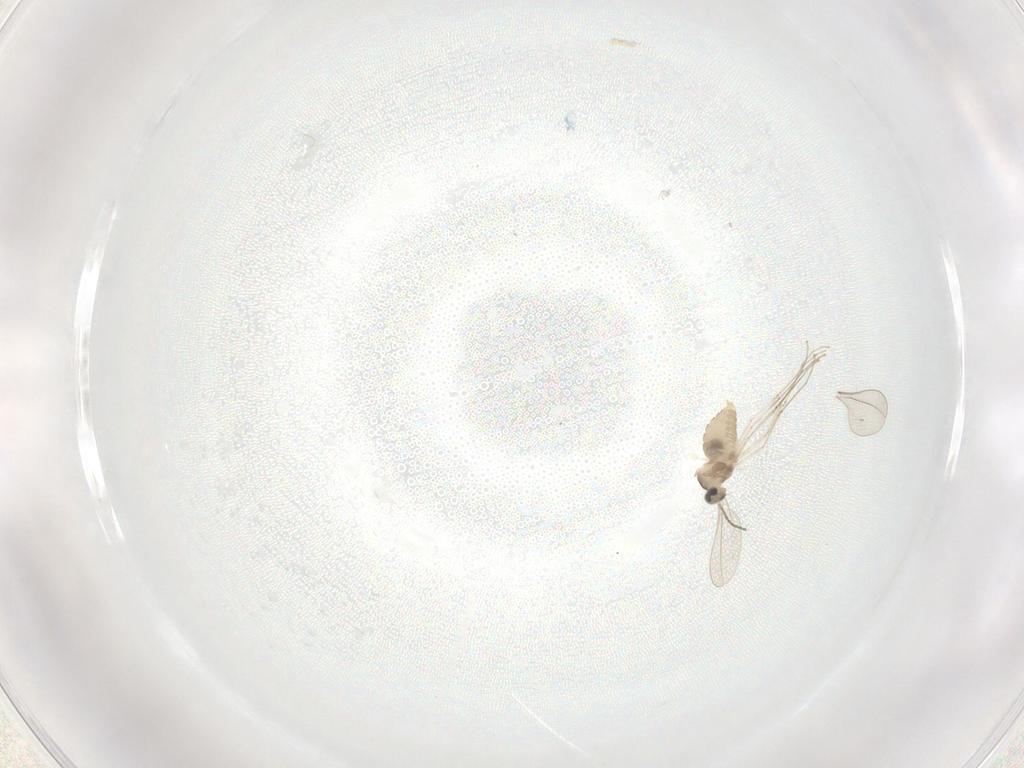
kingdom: Animalia
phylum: Arthropoda
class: Insecta
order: Diptera
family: Cecidomyiidae
